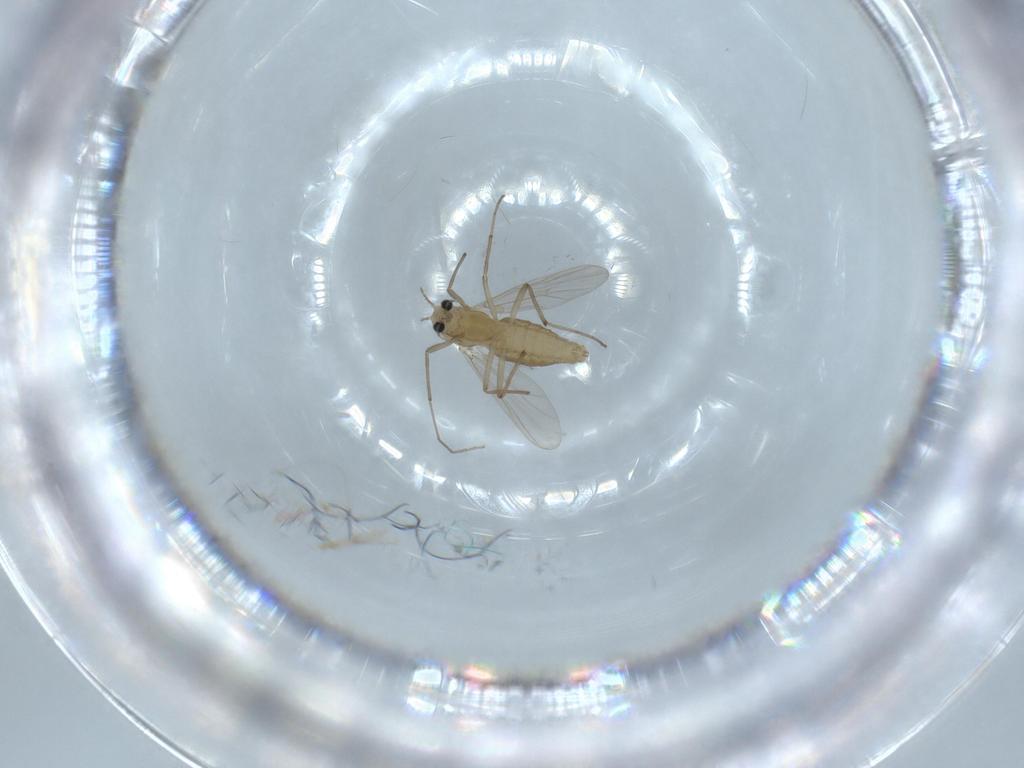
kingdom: Animalia
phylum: Arthropoda
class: Insecta
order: Diptera
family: Chironomidae
